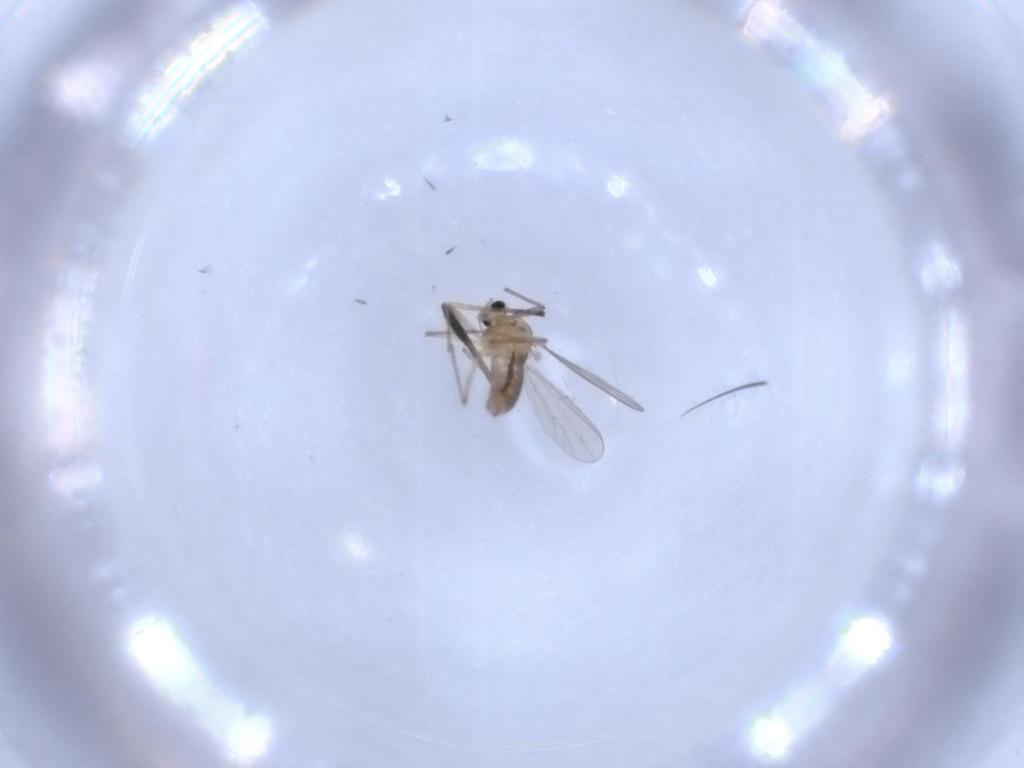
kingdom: Animalia
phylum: Arthropoda
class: Insecta
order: Diptera
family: Chironomidae
